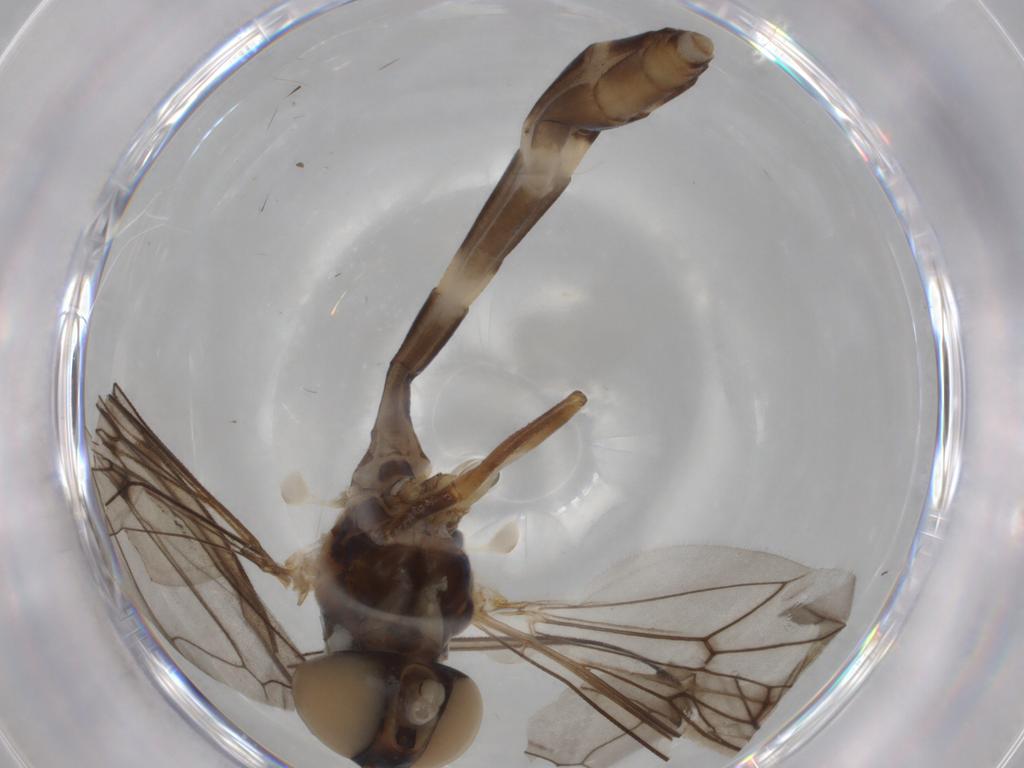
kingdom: Animalia
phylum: Arthropoda
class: Insecta
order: Diptera
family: Syrphidae
